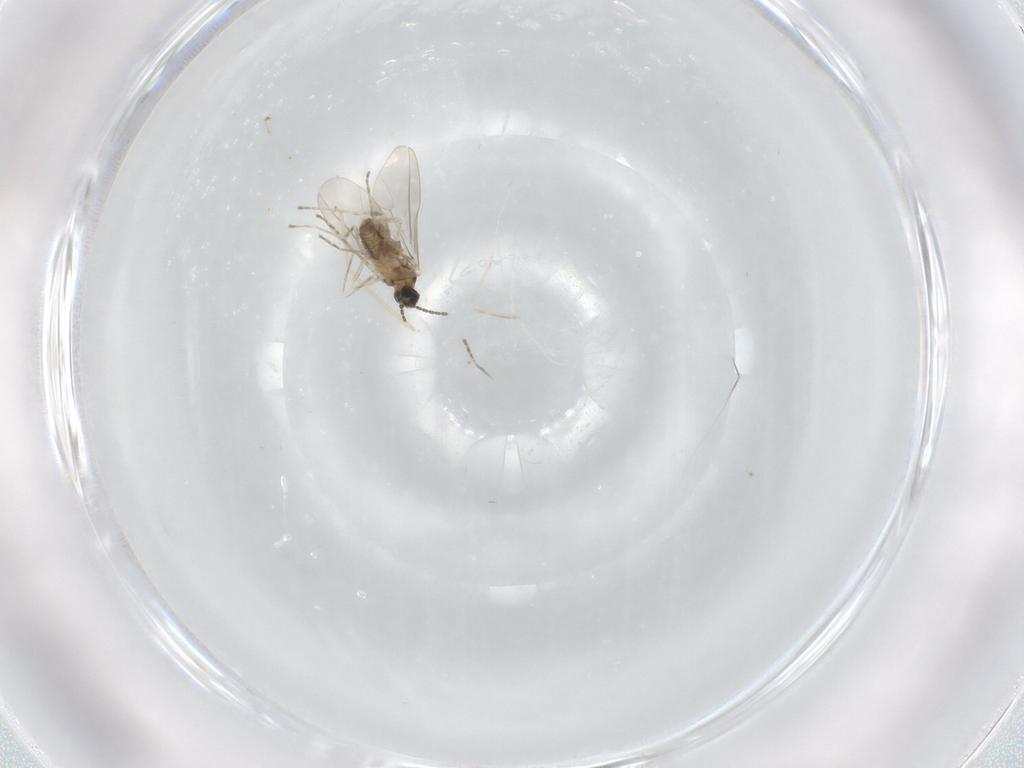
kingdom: Animalia
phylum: Arthropoda
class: Insecta
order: Diptera
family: Cecidomyiidae
